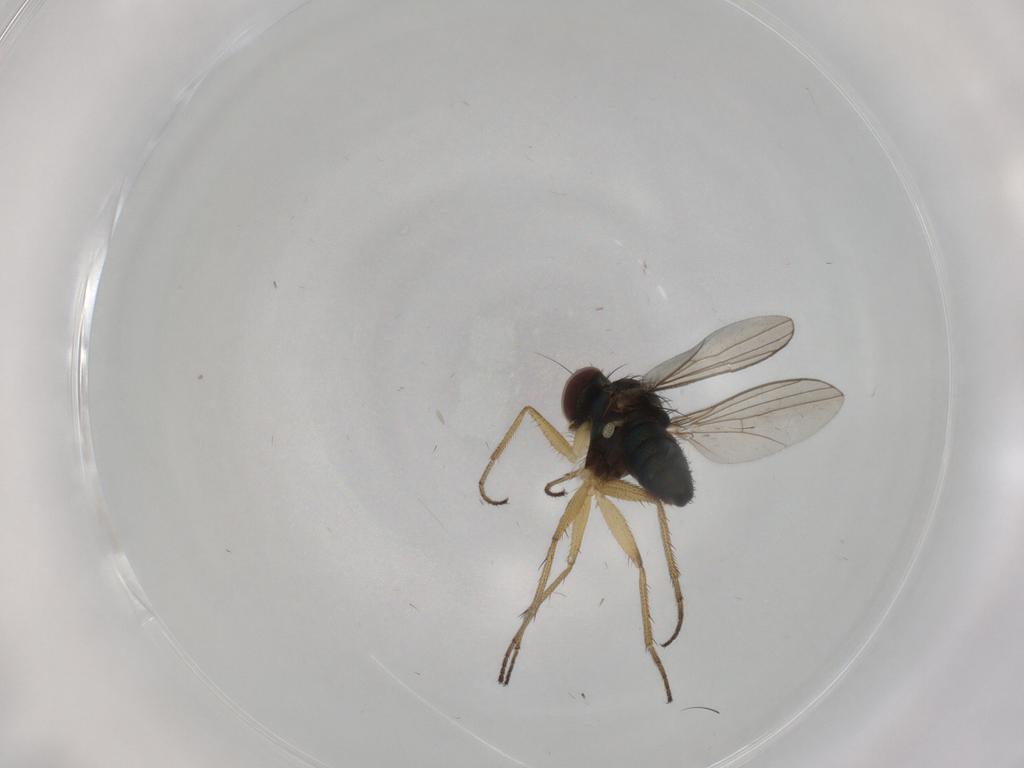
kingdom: Animalia
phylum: Arthropoda
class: Insecta
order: Diptera
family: Dolichopodidae
